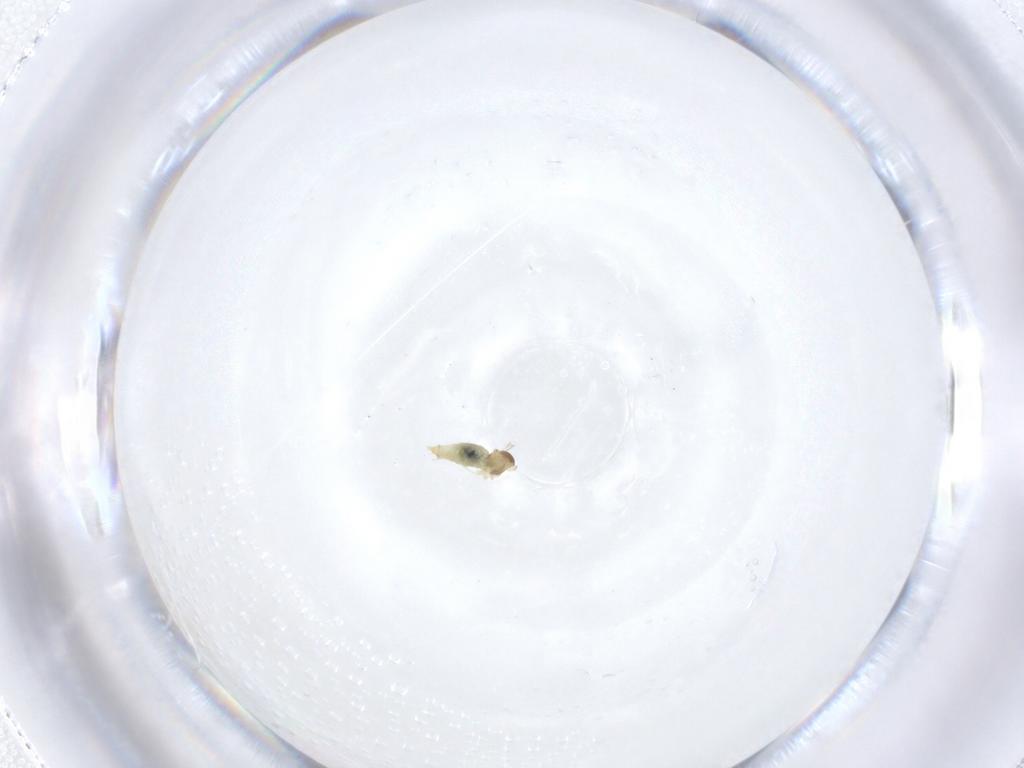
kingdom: Animalia
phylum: Arthropoda
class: Insecta
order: Diptera
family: Cecidomyiidae
